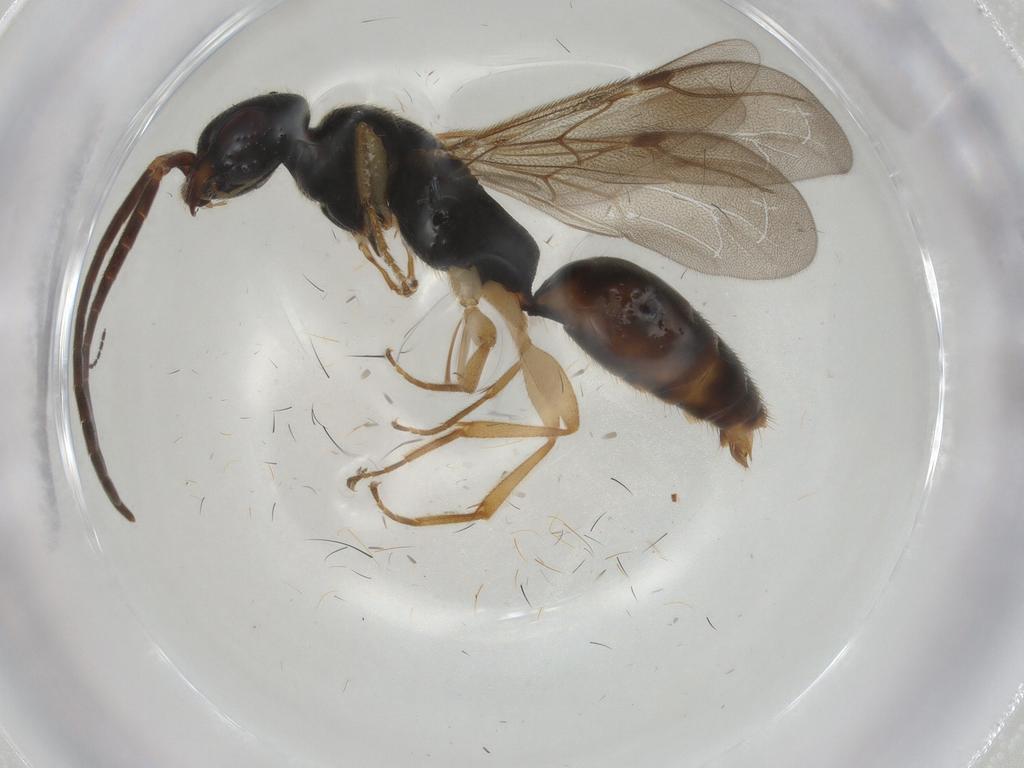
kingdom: Animalia
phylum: Arthropoda
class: Insecta
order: Hymenoptera
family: Bethylidae
